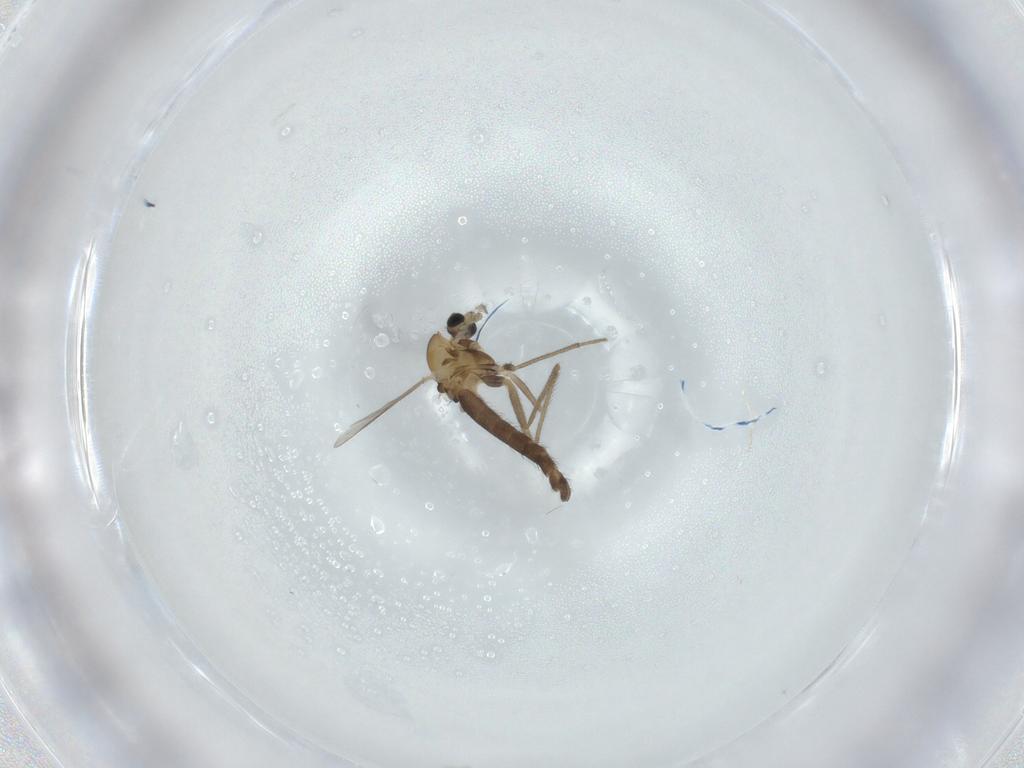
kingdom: Animalia
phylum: Arthropoda
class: Insecta
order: Diptera
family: Chironomidae
